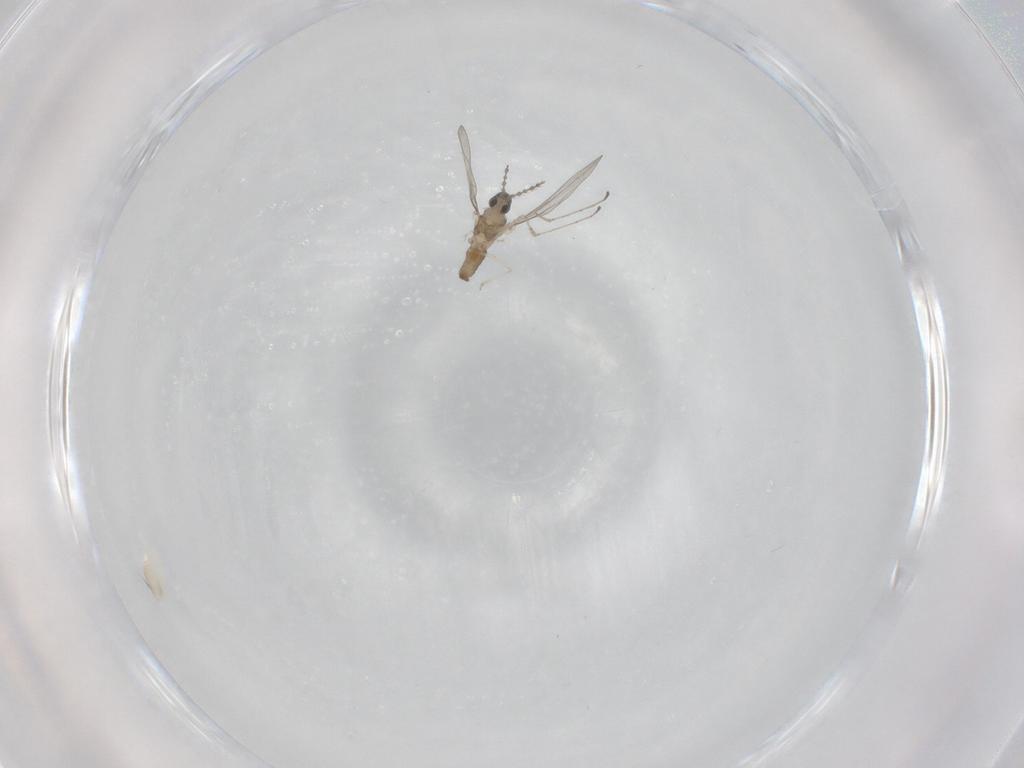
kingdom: Animalia
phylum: Arthropoda
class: Insecta
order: Diptera
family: Cecidomyiidae
